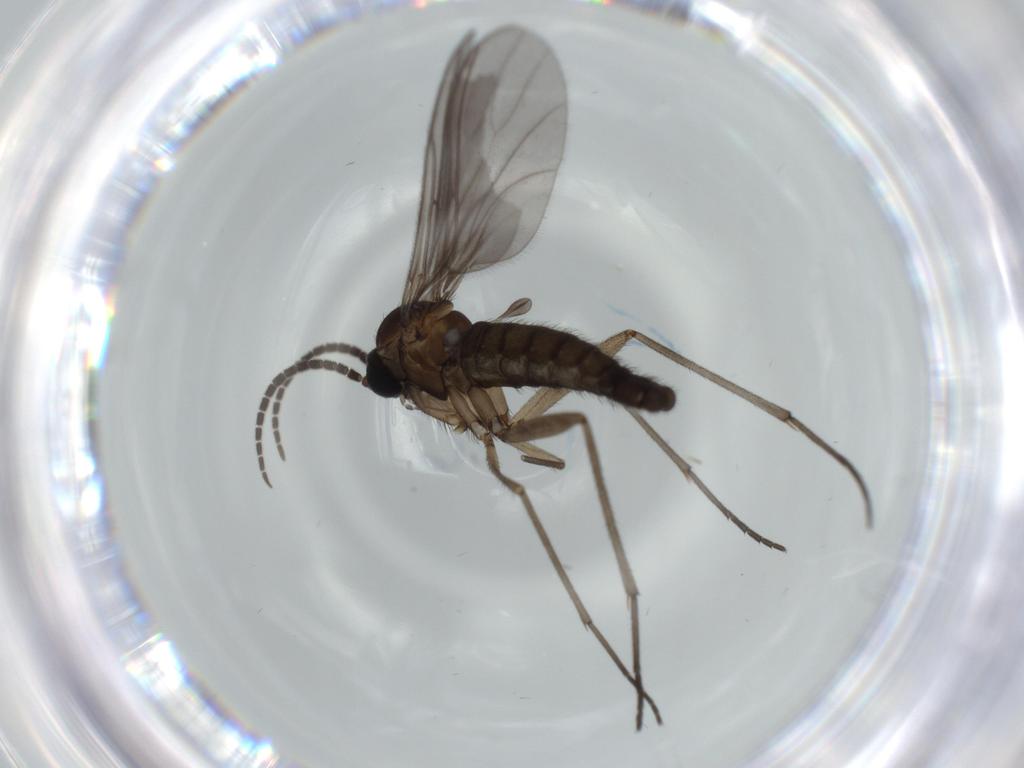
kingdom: Animalia
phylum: Arthropoda
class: Insecta
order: Diptera
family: Sciaridae
